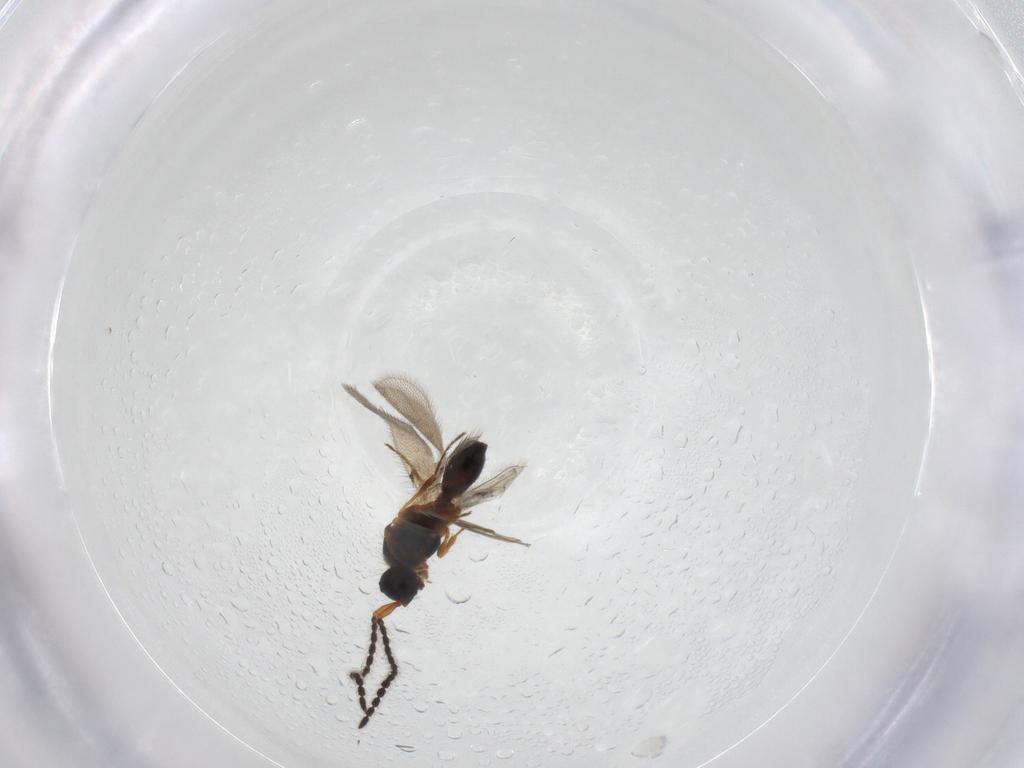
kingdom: Animalia
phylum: Arthropoda
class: Insecta
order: Hymenoptera
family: Diapriidae
